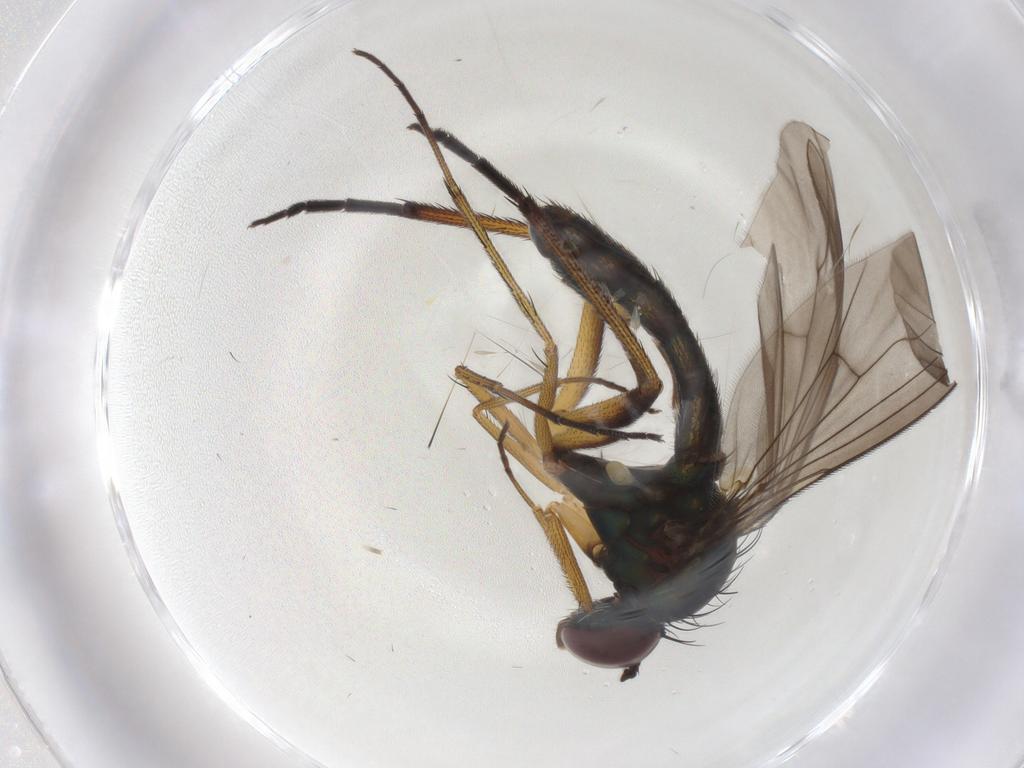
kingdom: Animalia
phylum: Arthropoda
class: Insecta
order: Diptera
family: Dolichopodidae
